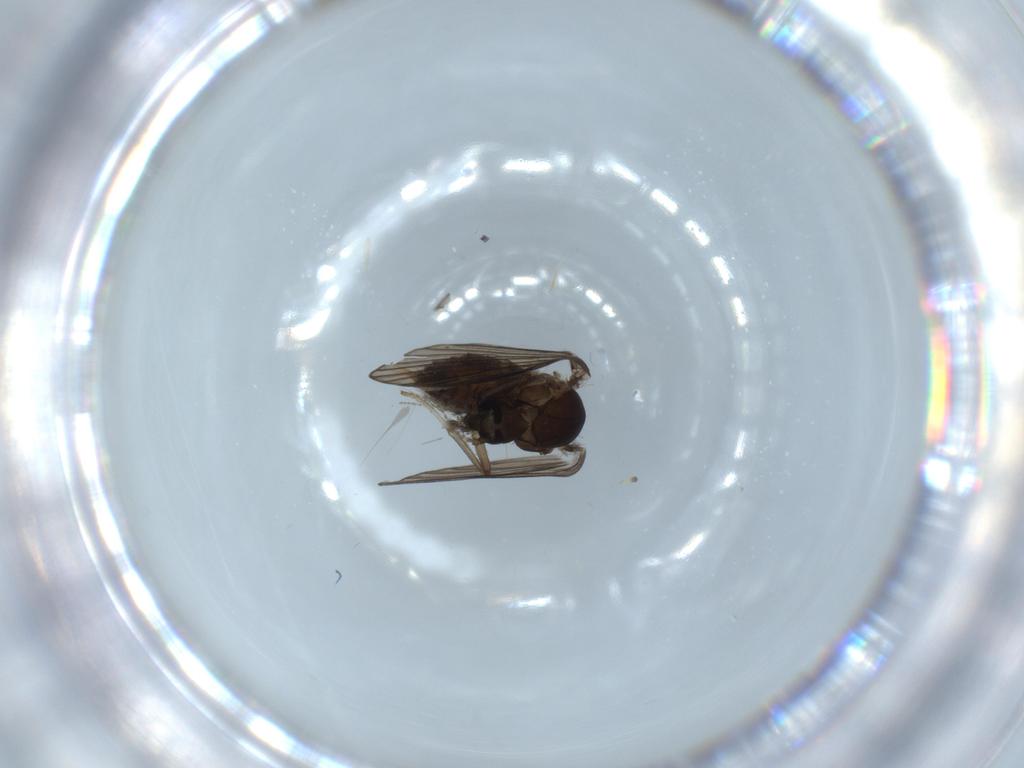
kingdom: Animalia
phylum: Arthropoda
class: Insecta
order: Diptera
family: Psychodidae
